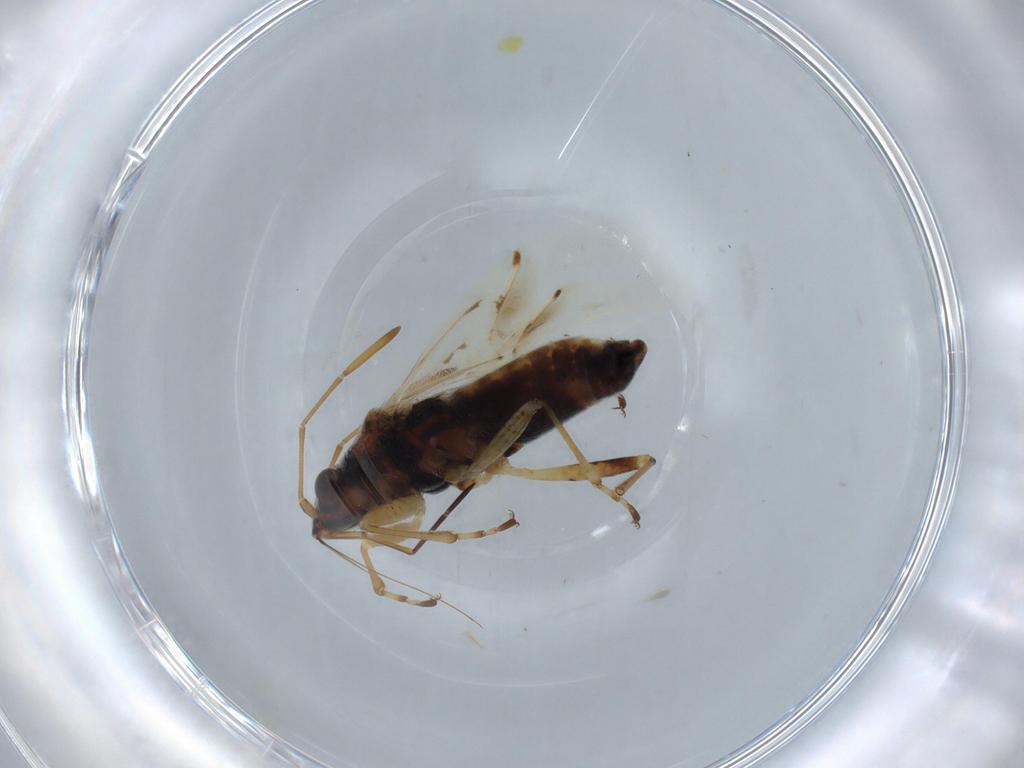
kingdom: Animalia
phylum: Arthropoda
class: Insecta
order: Hemiptera
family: Lygaeidae
